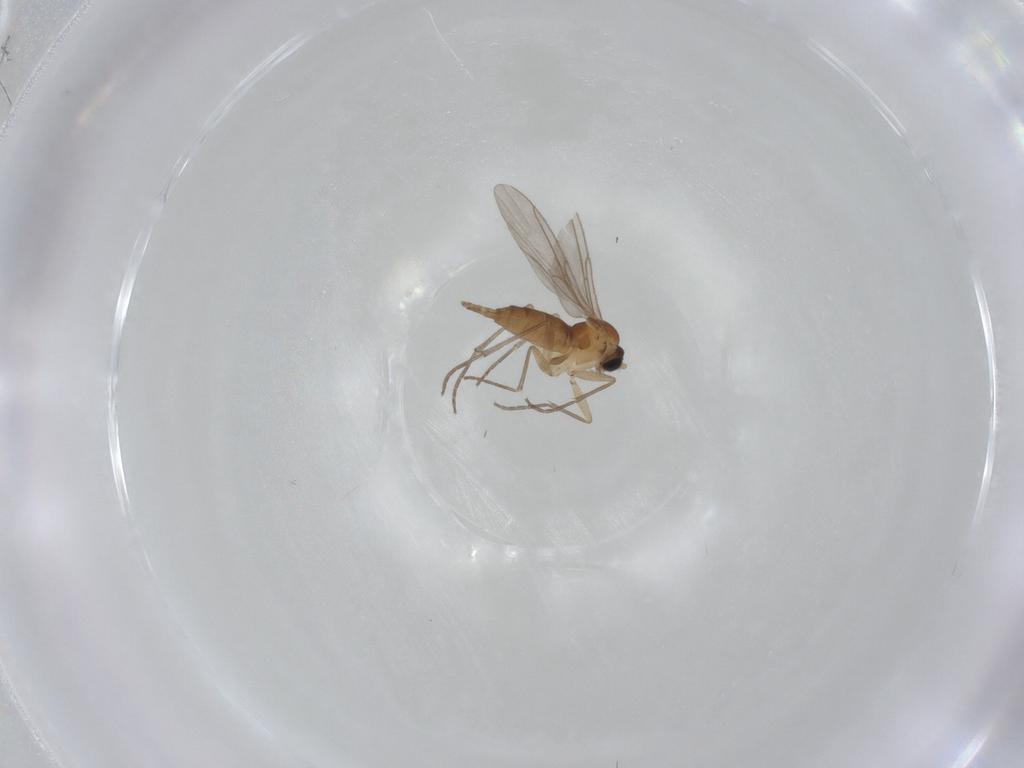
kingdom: Animalia
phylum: Arthropoda
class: Insecta
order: Diptera
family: Sciaridae
